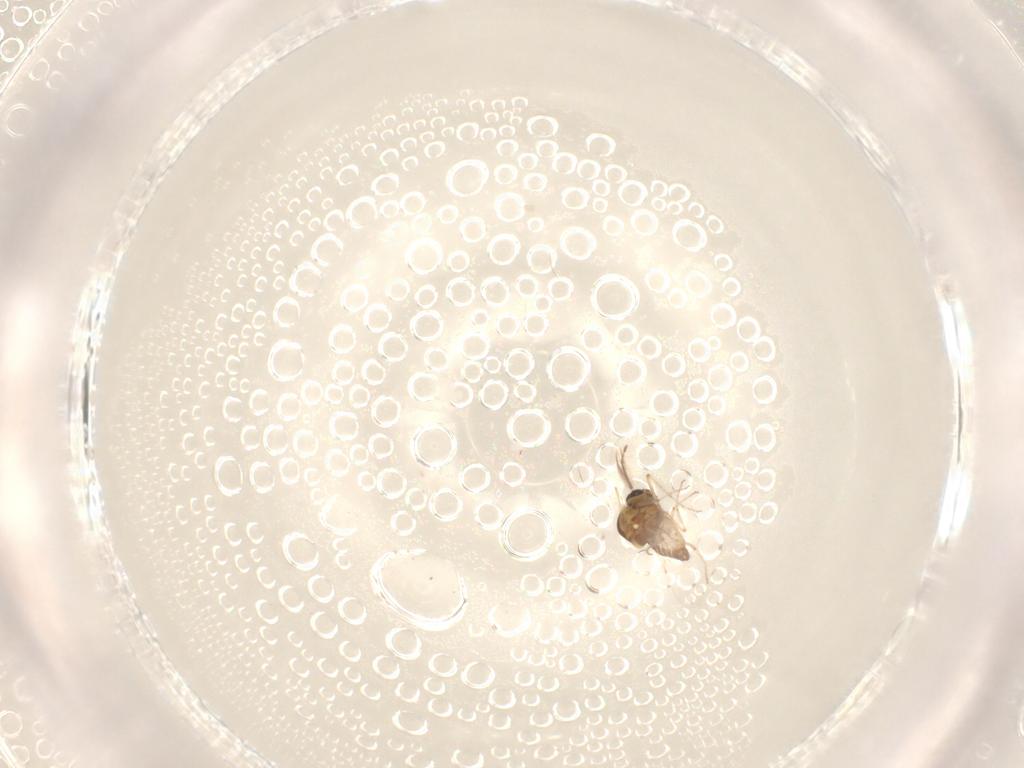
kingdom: Animalia
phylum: Arthropoda
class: Insecta
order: Diptera
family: Ceratopogonidae
